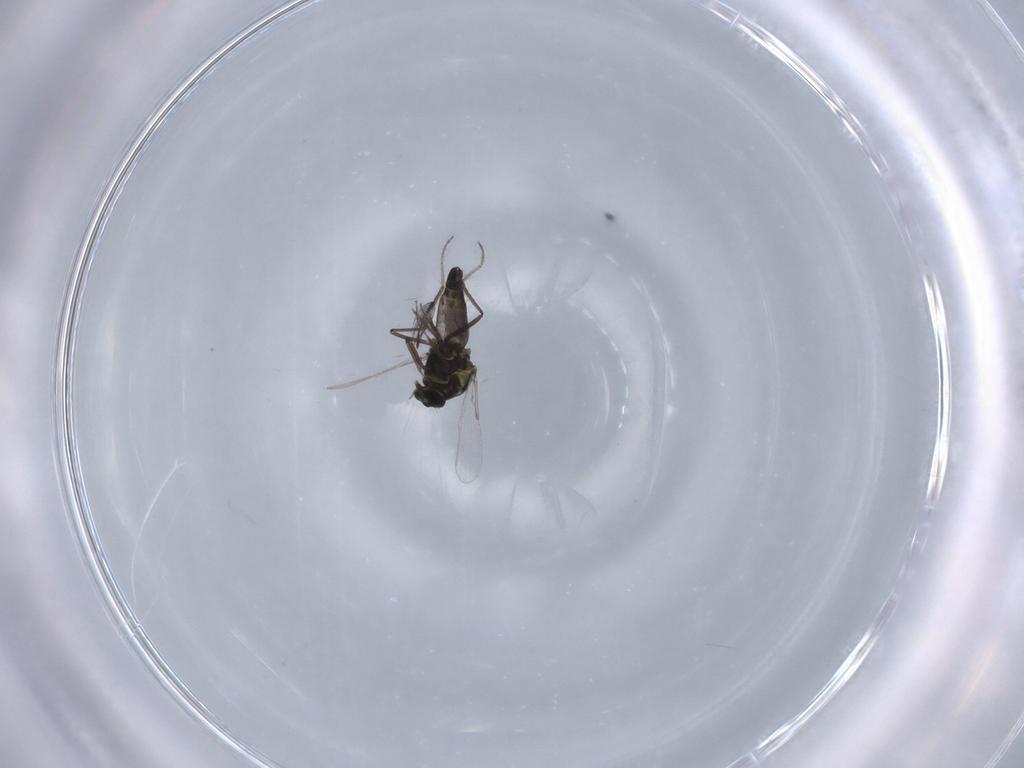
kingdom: Animalia
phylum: Arthropoda
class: Insecta
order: Diptera
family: Ceratopogonidae
